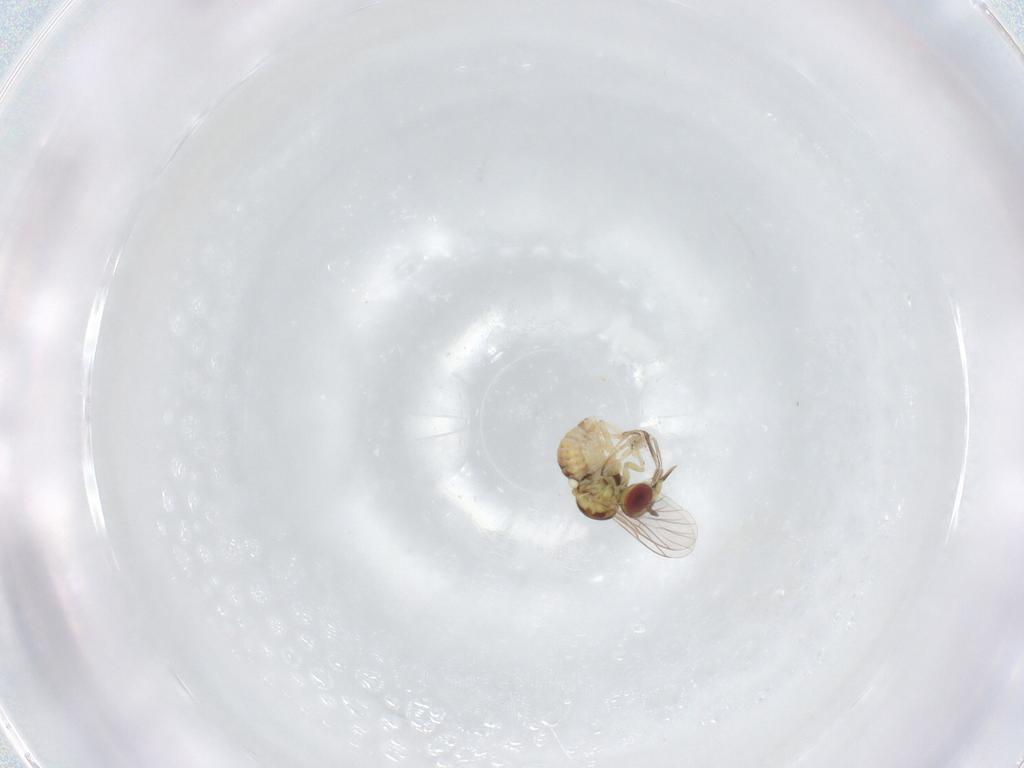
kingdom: Animalia
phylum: Arthropoda
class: Insecta
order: Diptera
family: Bombyliidae
